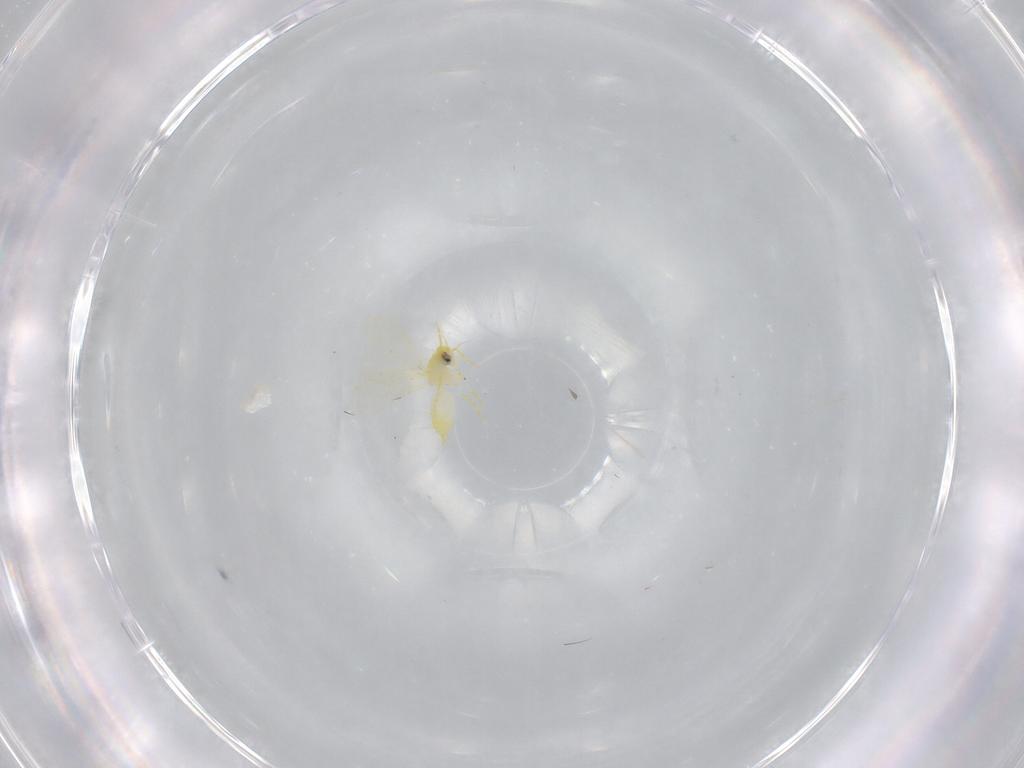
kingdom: Animalia
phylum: Arthropoda
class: Insecta
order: Hemiptera
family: Aleyrodidae
